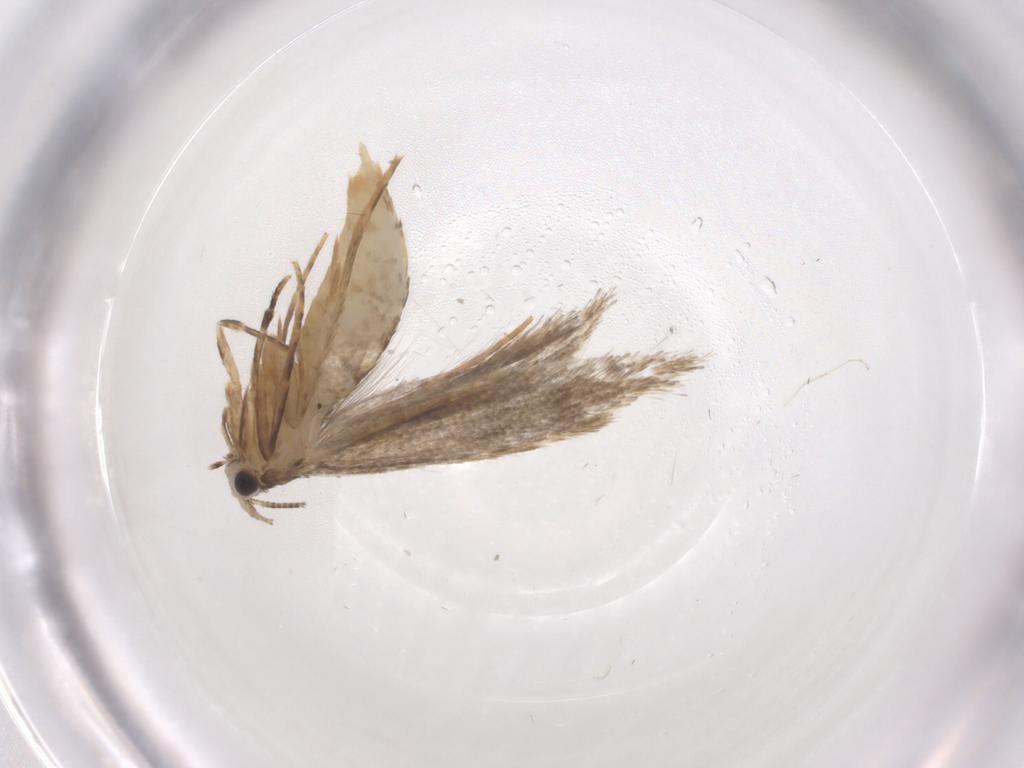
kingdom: Animalia
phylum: Arthropoda
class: Insecta
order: Lepidoptera
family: Tineidae
